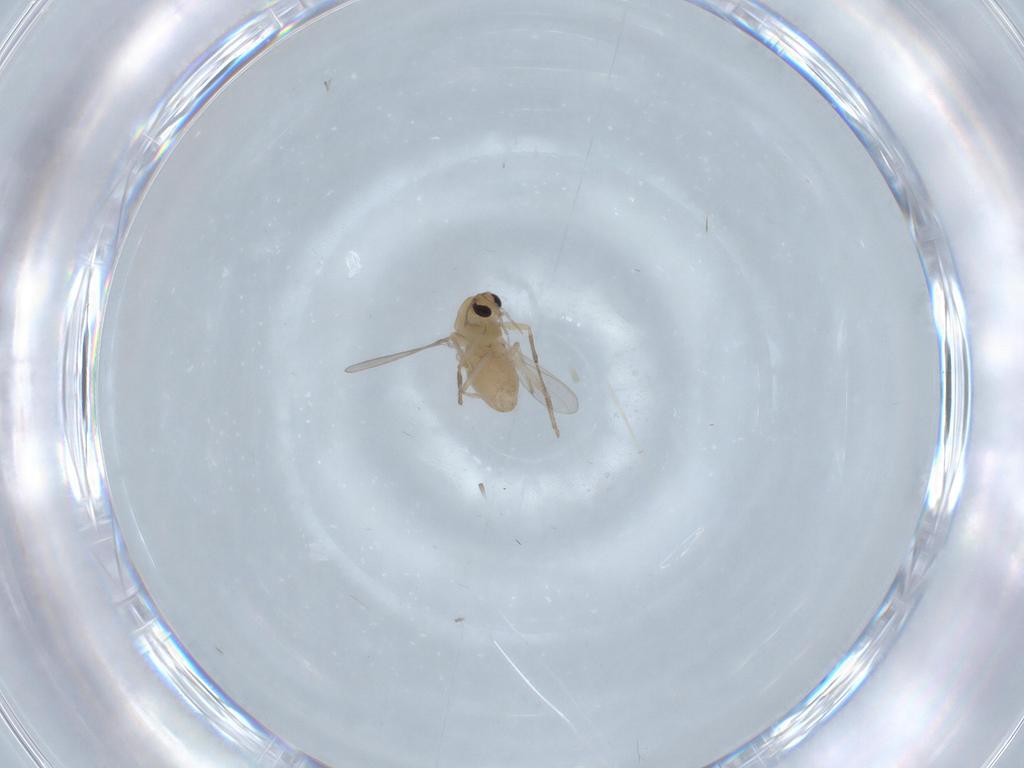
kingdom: Animalia
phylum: Arthropoda
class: Insecta
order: Diptera
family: Chironomidae
